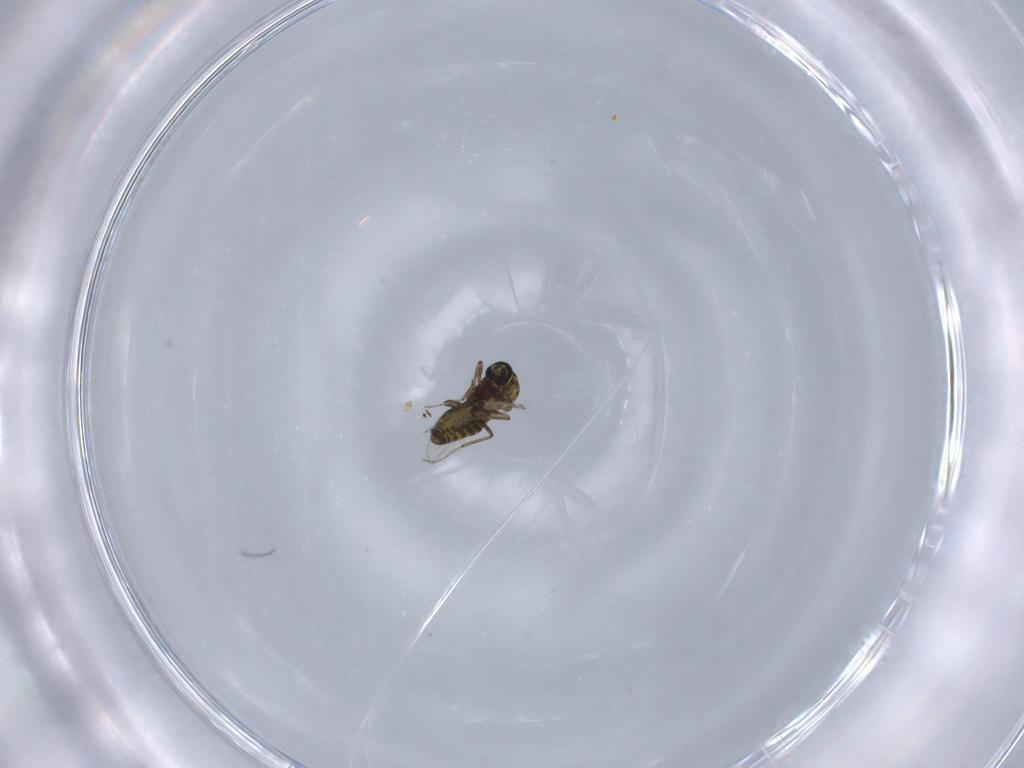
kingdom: Animalia
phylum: Arthropoda
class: Insecta
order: Diptera
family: Ceratopogonidae
